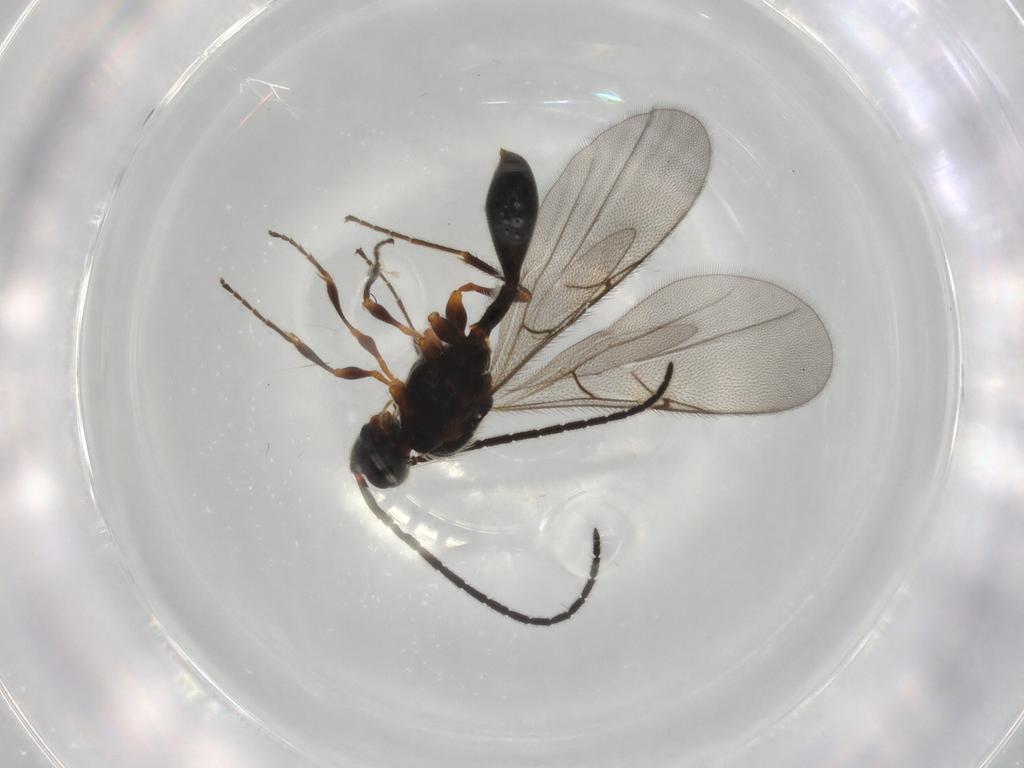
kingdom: Animalia
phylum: Arthropoda
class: Insecta
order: Hymenoptera
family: Diapriidae
